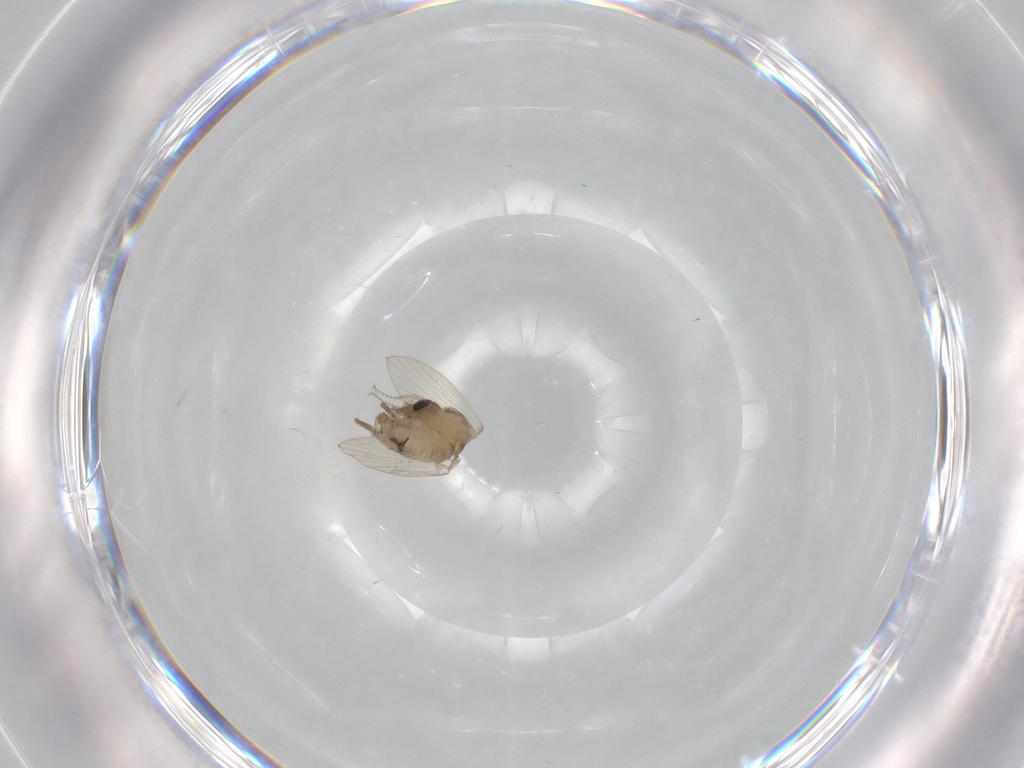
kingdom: Animalia
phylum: Arthropoda
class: Insecta
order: Diptera
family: Psychodidae
